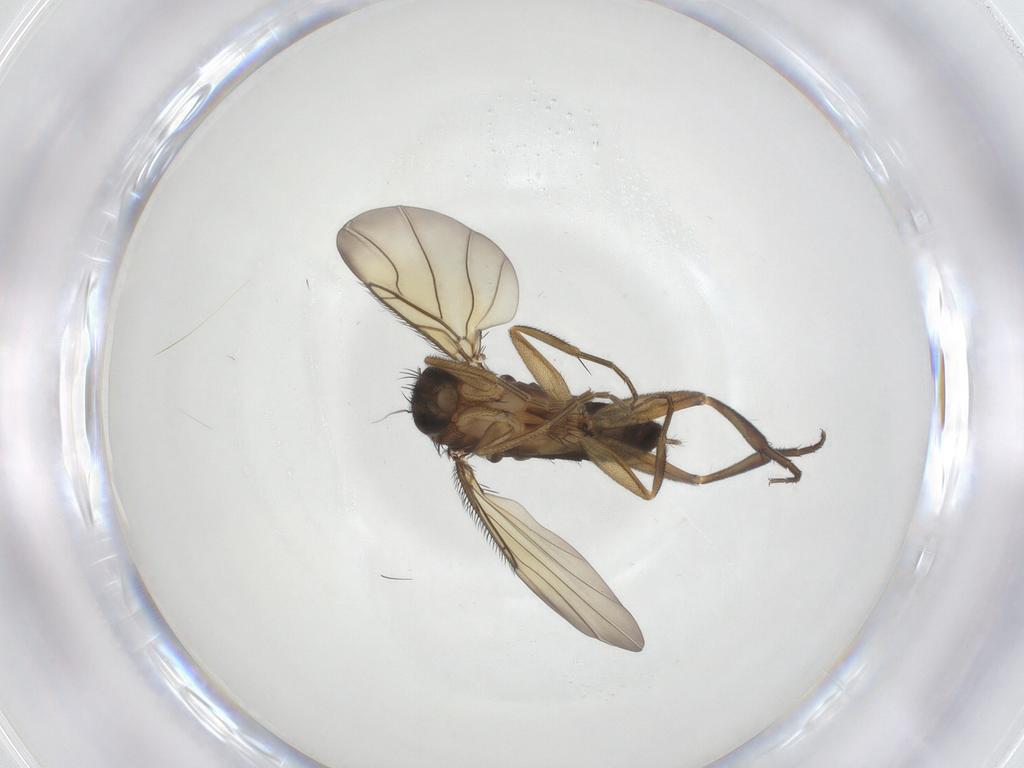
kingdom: Animalia
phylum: Arthropoda
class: Insecta
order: Diptera
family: Phoridae
